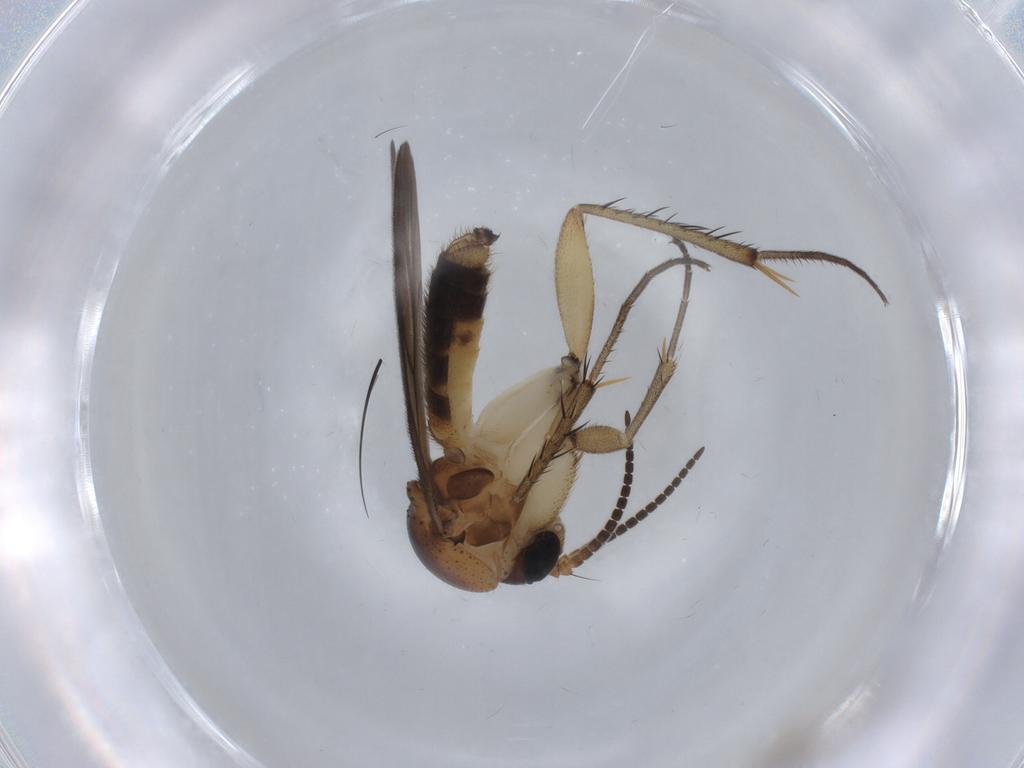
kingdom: Animalia
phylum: Arthropoda
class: Insecta
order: Diptera
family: Mycetophilidae
